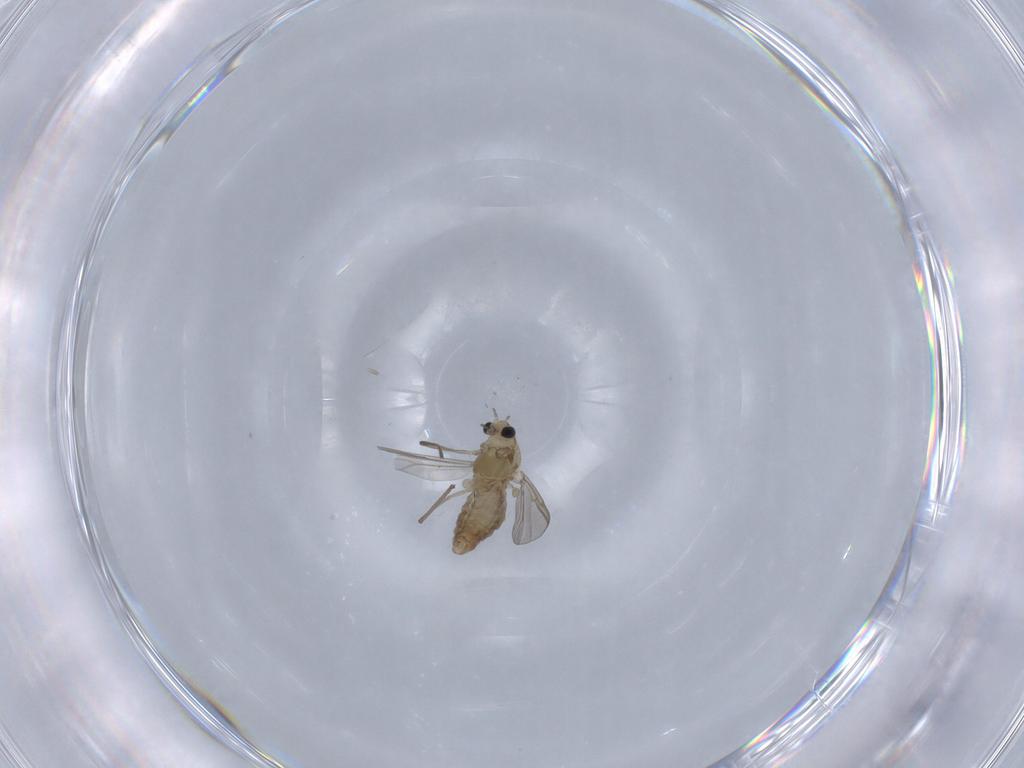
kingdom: Animalia
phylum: Arthropoda
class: Insecta
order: Diptera
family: Chironomidae
